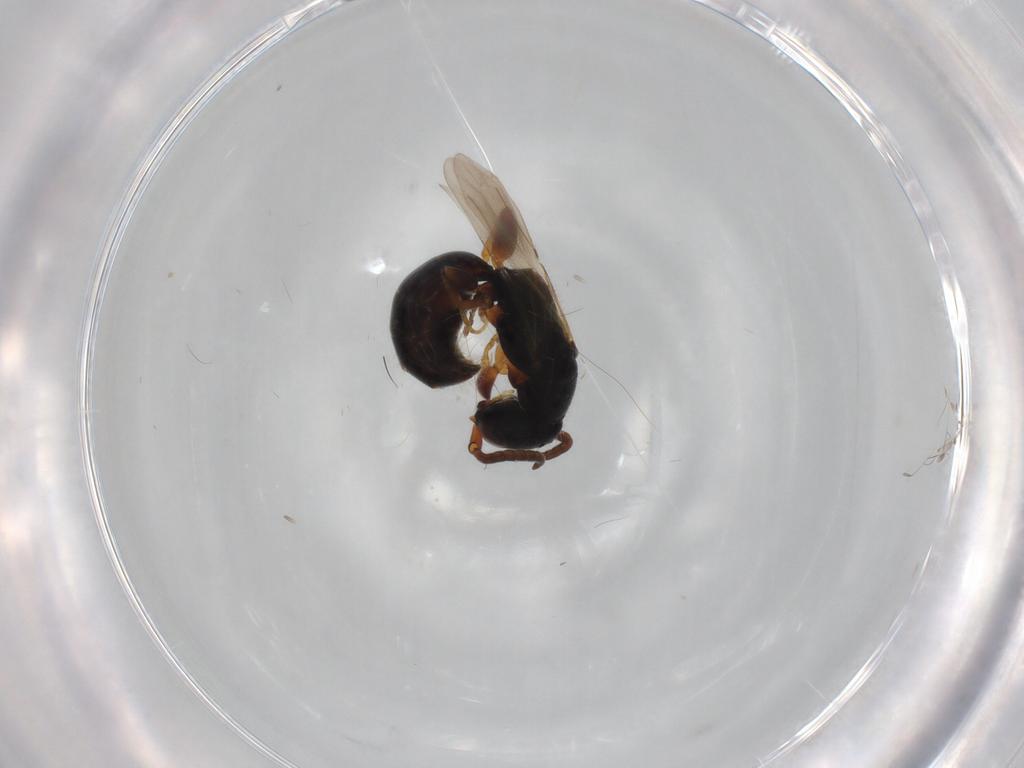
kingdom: Animalia
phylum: Arthropoda
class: Insecta
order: Hymenoptera
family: Bethylidae
